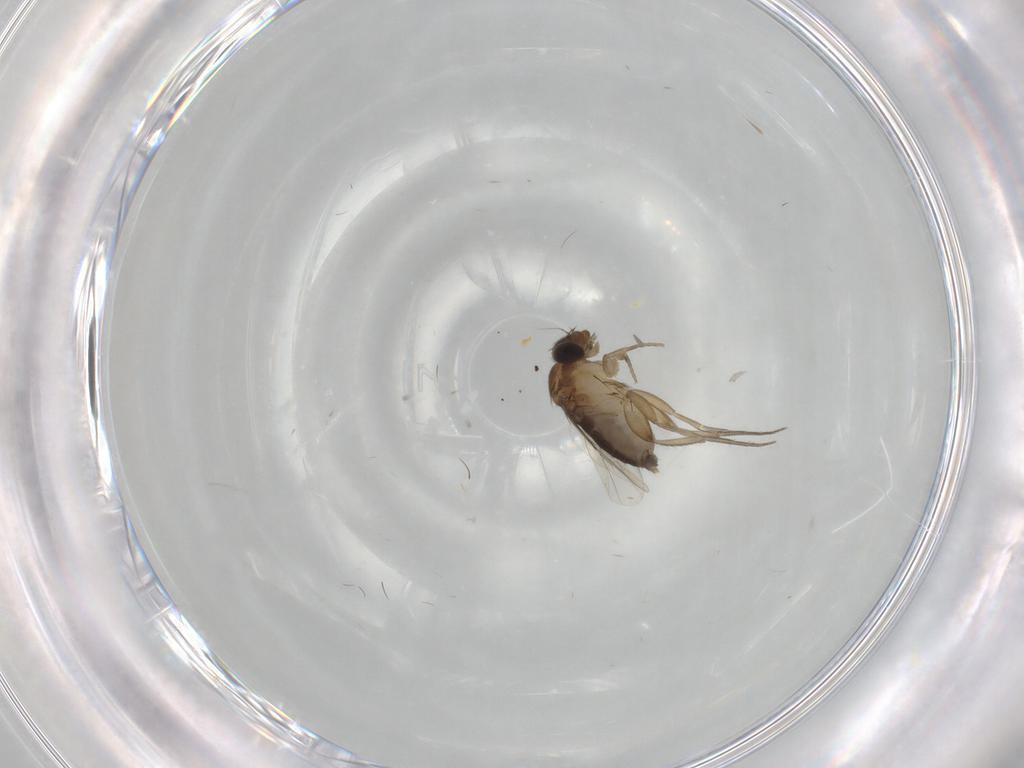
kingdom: Animalia
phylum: Arthropoda
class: Insecta
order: Diptera
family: Phoridae
